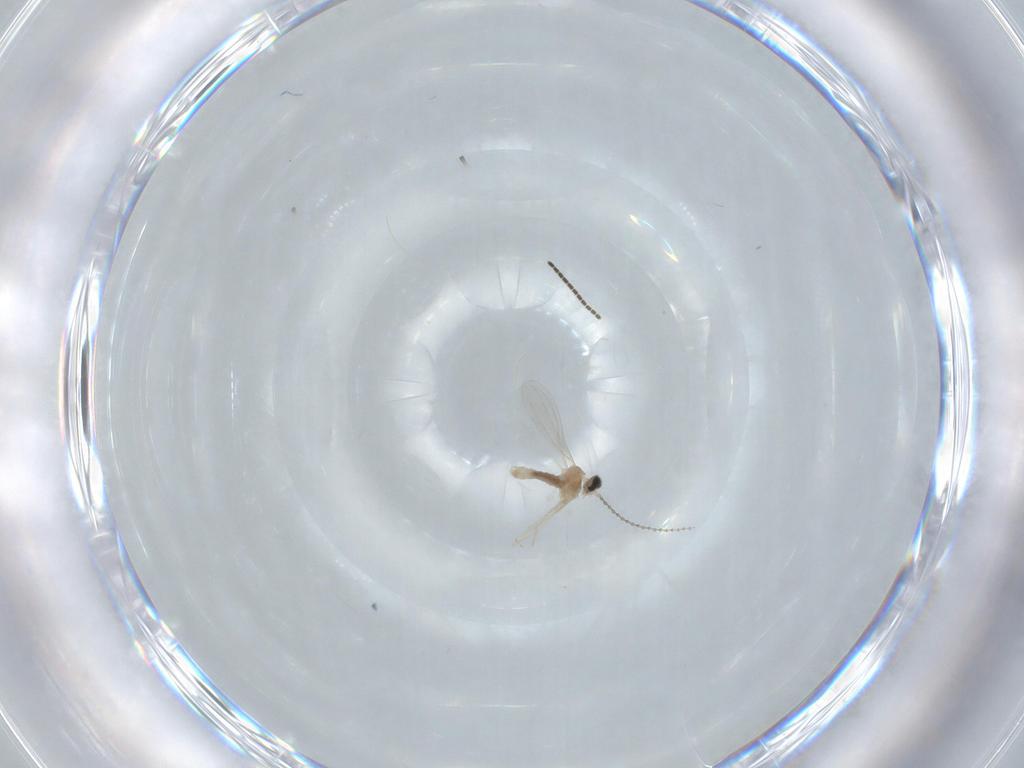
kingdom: Animalia
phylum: Arthropoda
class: Insecta
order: Diptera
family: Sciaridae
